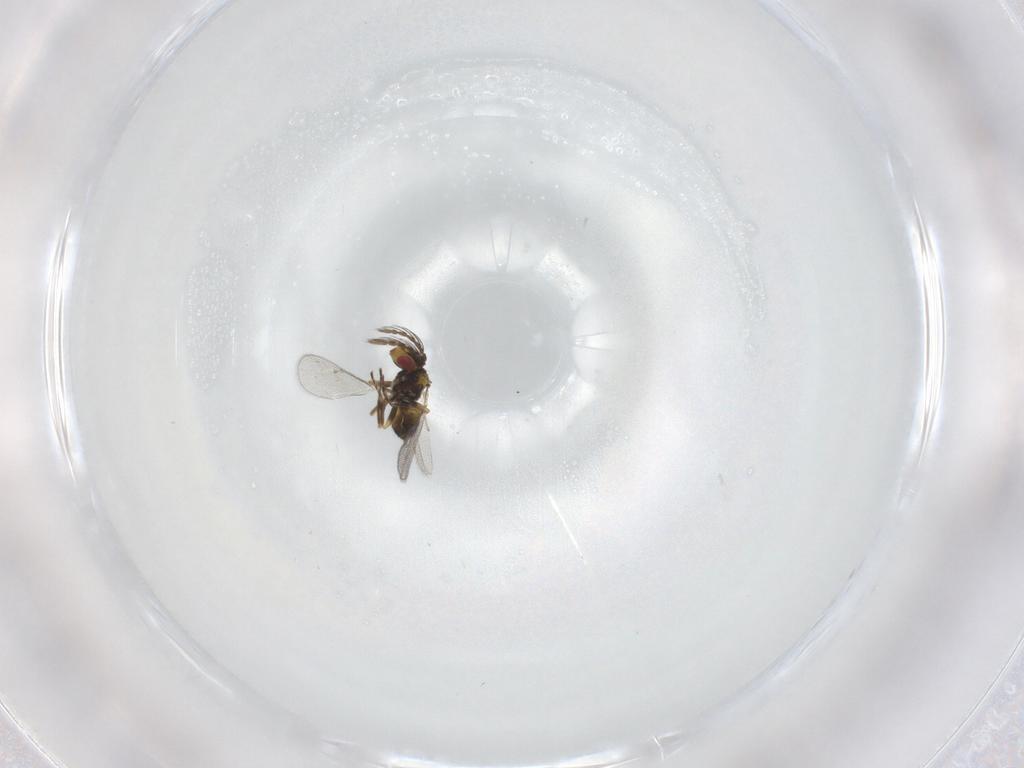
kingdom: Animalia
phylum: Arthropoda
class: Insecta
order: Hymenoptera
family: Eulophidae
